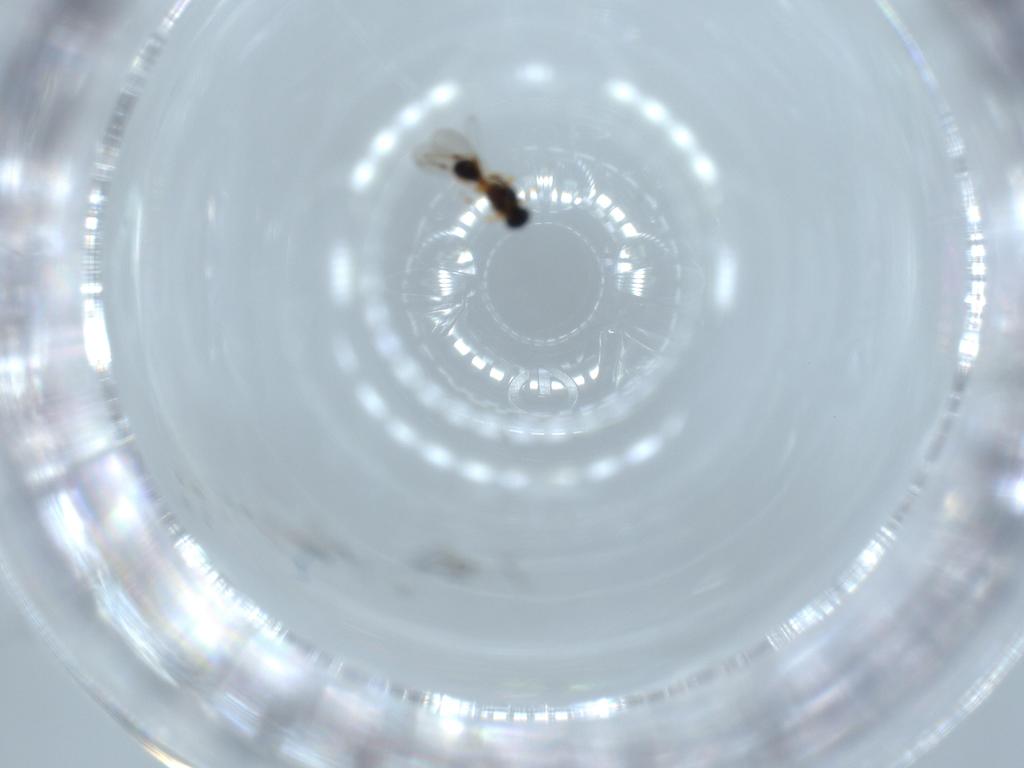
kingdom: Animalia
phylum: Arthropoda
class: Insecta
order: Hymenoptera
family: Platygastridae
